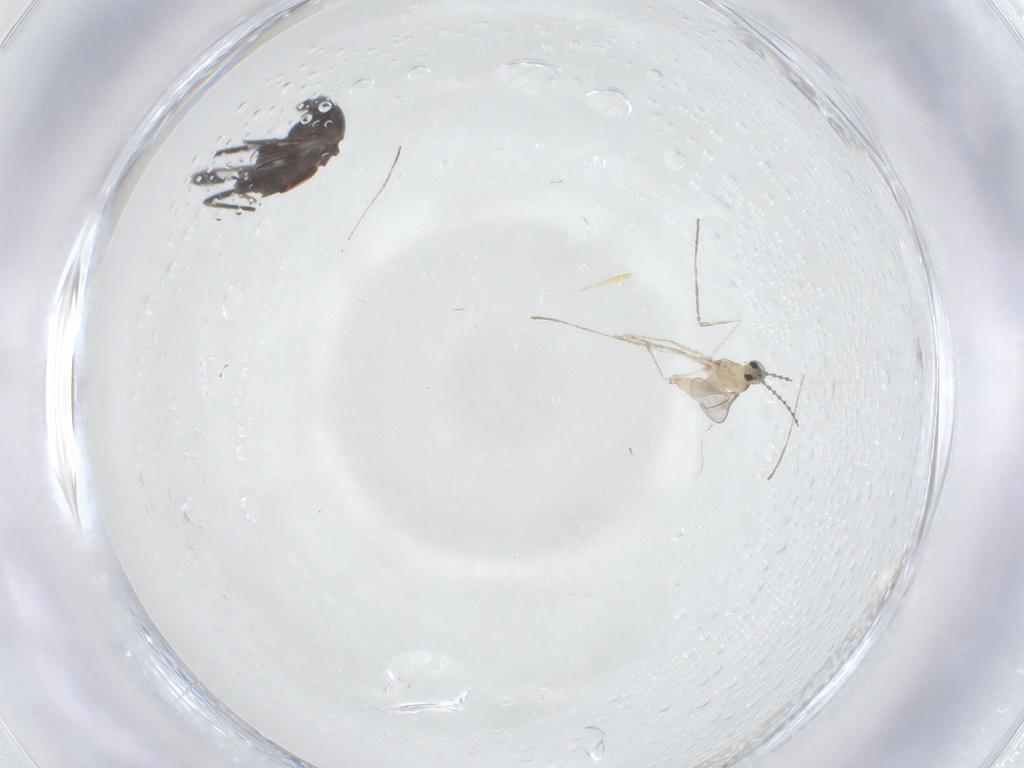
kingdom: Animalia
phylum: Arthropoda
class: Insecta
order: Diptera
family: Cecidomyiidae
